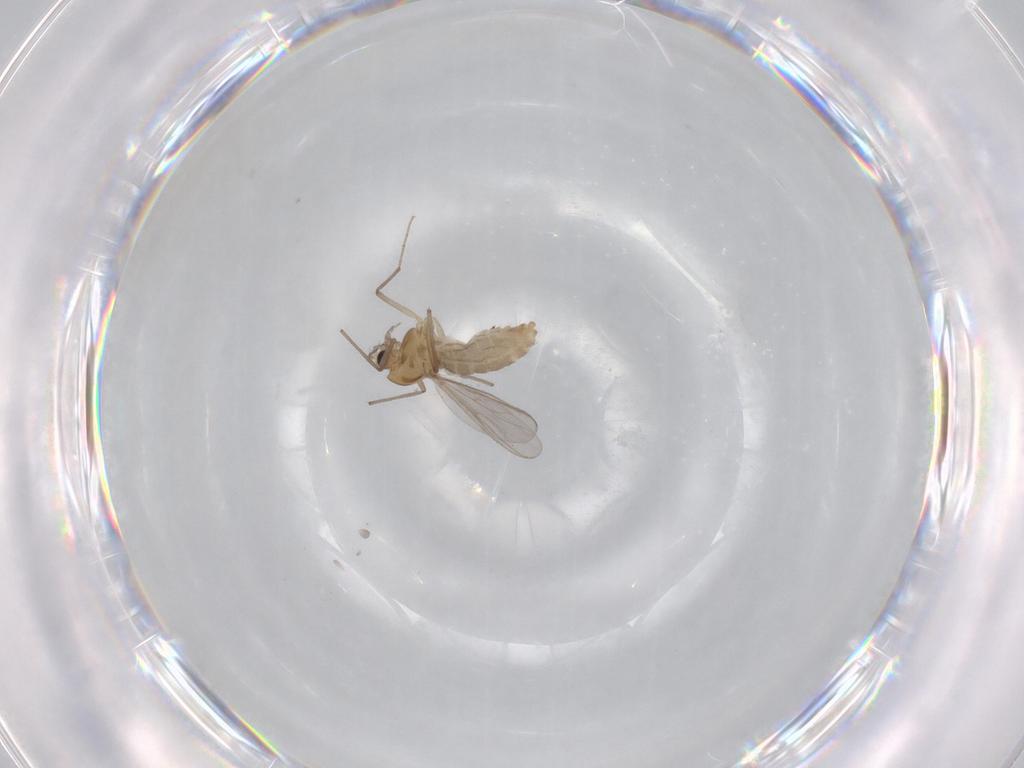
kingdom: Animalia
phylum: Arthropoda
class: Insecta
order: Diptera
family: Chironomidae
